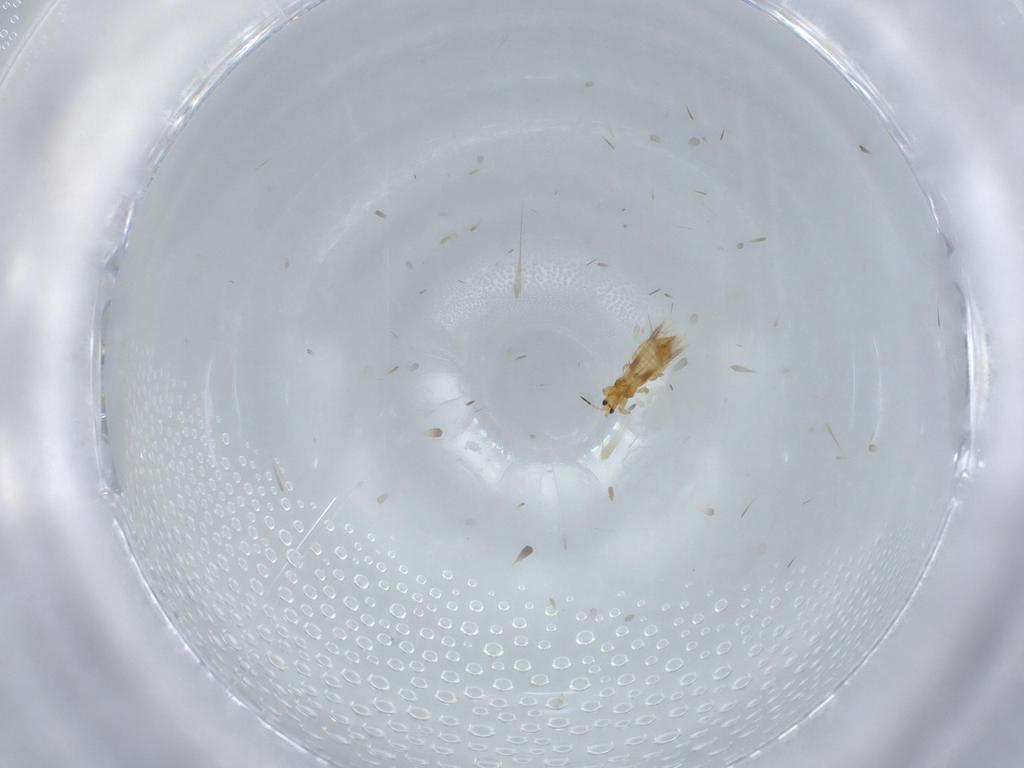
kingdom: Animalia
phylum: Arthropoda
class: Insecta
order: Thysanoptera
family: Thripidae
